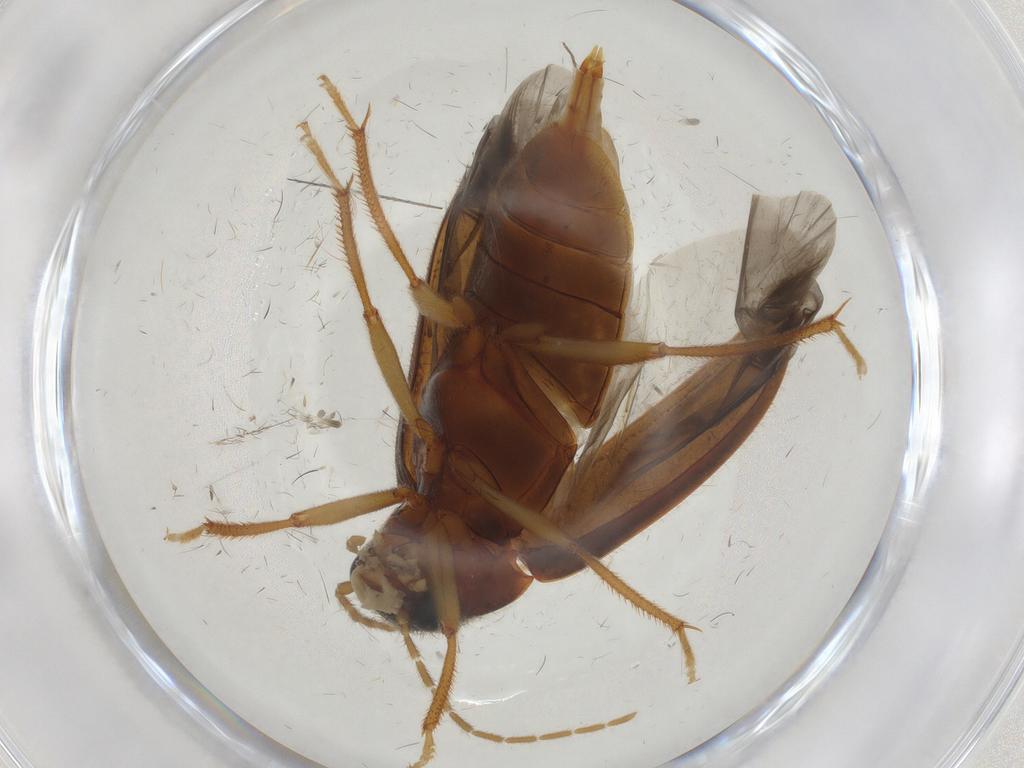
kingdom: Animalia
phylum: Arthropoda
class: Insecta
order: Coleoptera
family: Ptilodactylidae
